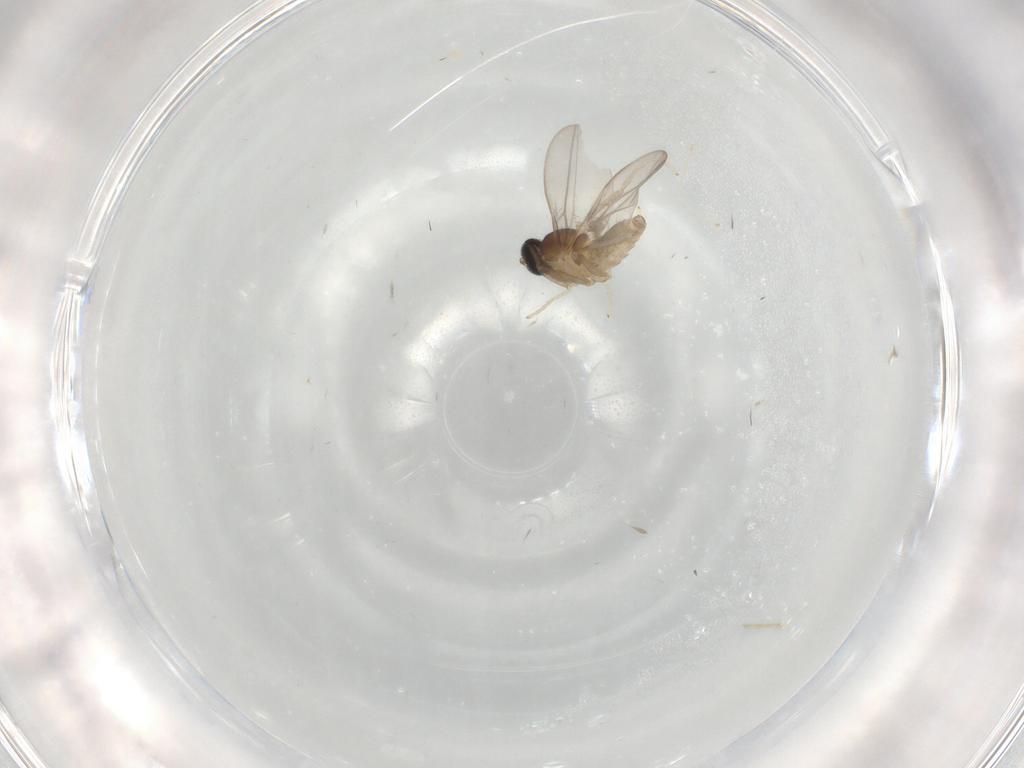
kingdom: Animalia
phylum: Arthropoda
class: Insecta
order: Diptera
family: Cecidomyiidae
